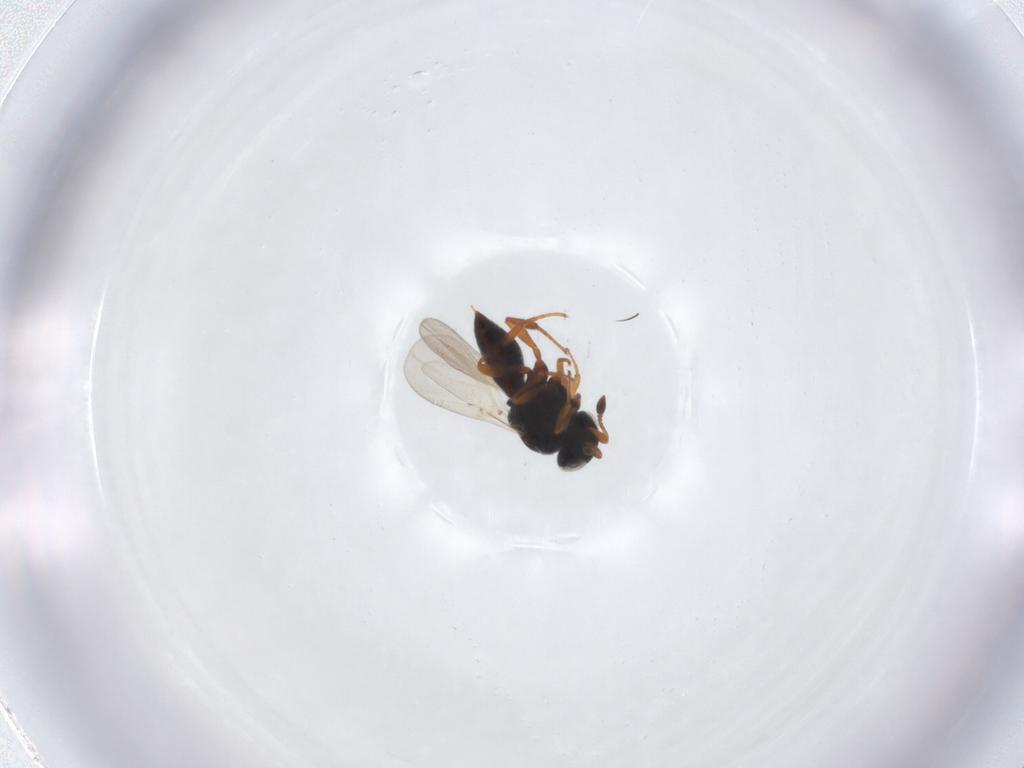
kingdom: Animalia
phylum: Arthropoda
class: Insecta
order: Hymenoptera
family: Platygastridae
